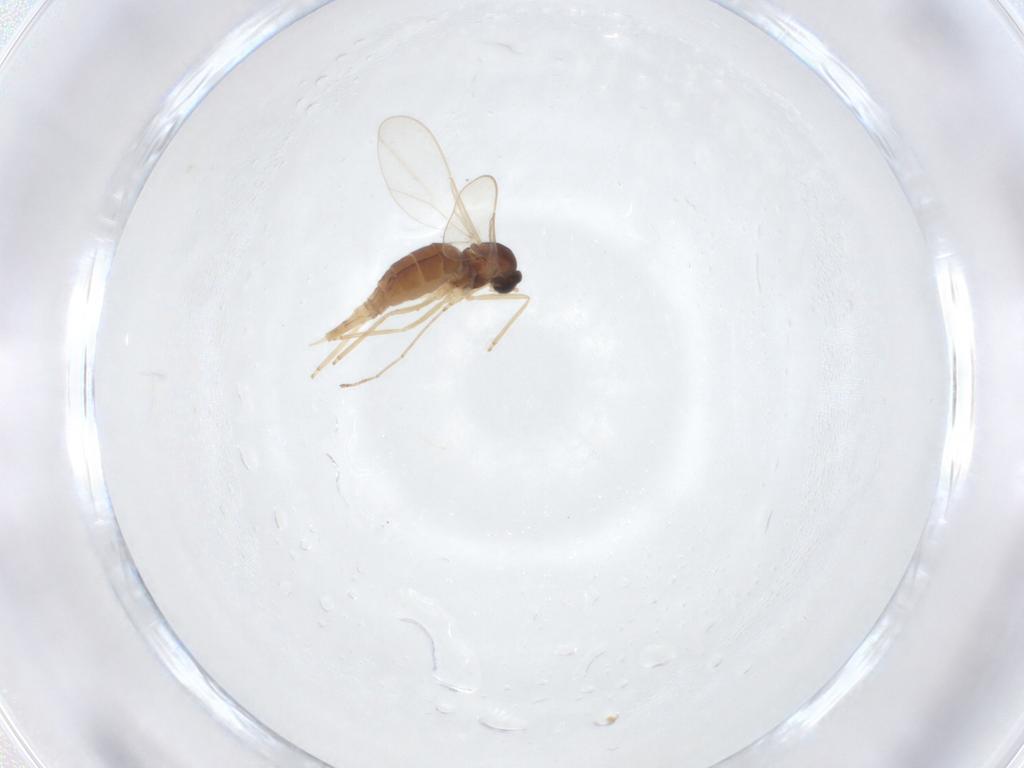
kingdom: Animalia
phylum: Arthropoda
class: Insecta
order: Diptera
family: Cecidomyiidae
